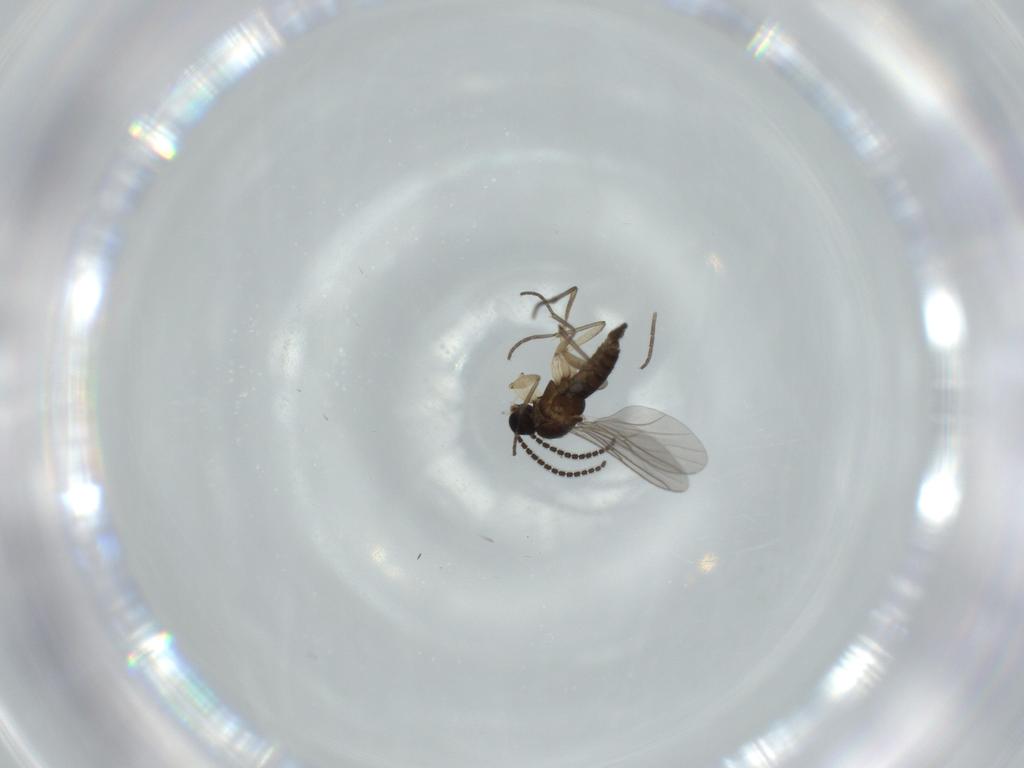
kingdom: Animalia
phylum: Arthropoda
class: Insecta
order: Diptera
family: Sciaridae
